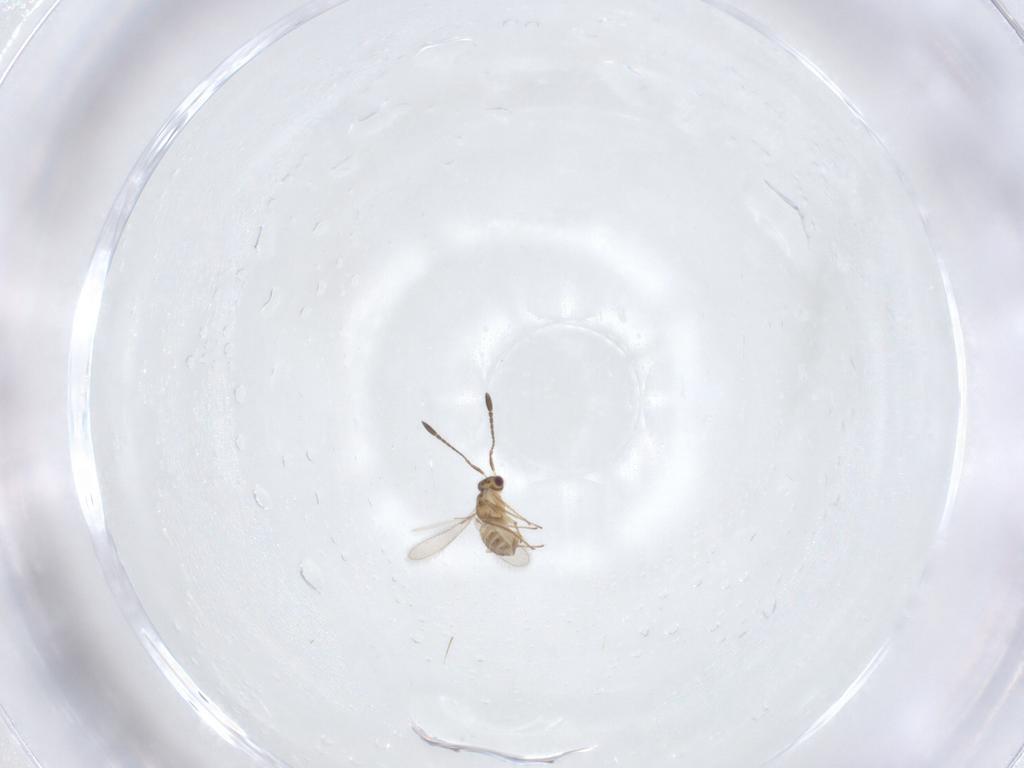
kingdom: Animalia
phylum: Arthropoda
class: Insecta
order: Hymenoptera
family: Mymaridae
